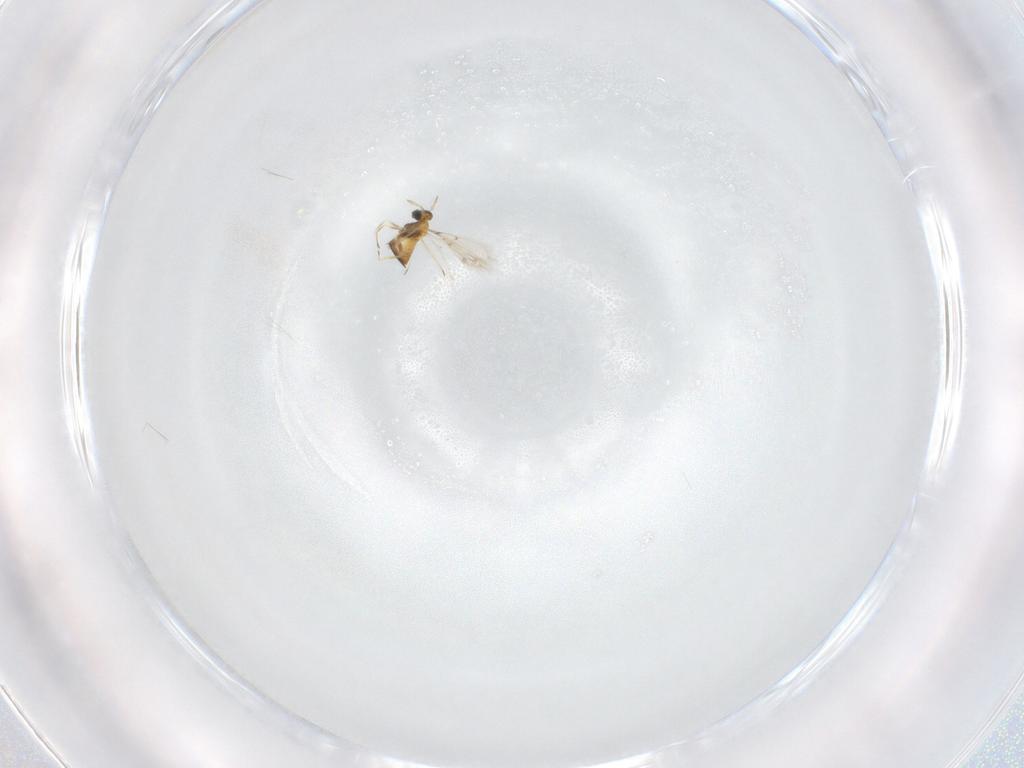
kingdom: Animalia
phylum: Arthropoda
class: Insecta
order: Hymenoptera
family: Trichogrammatidae
